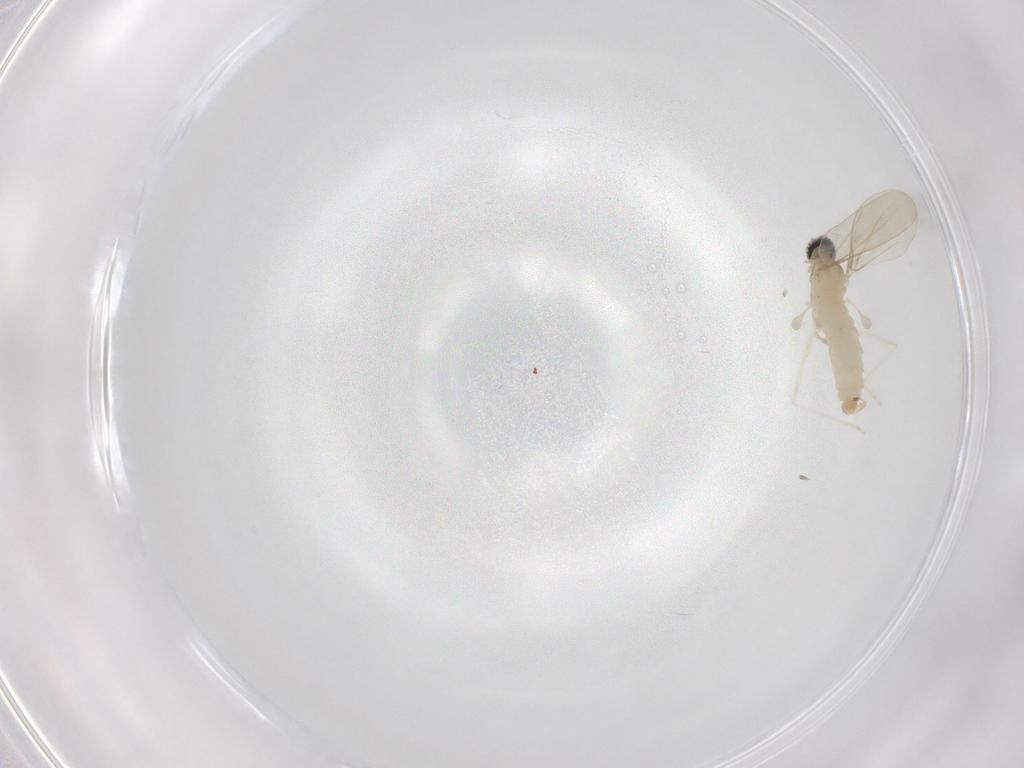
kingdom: Animalia
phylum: Arthropoda
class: Insecta
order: Diptera
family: Cecidomyiidae
